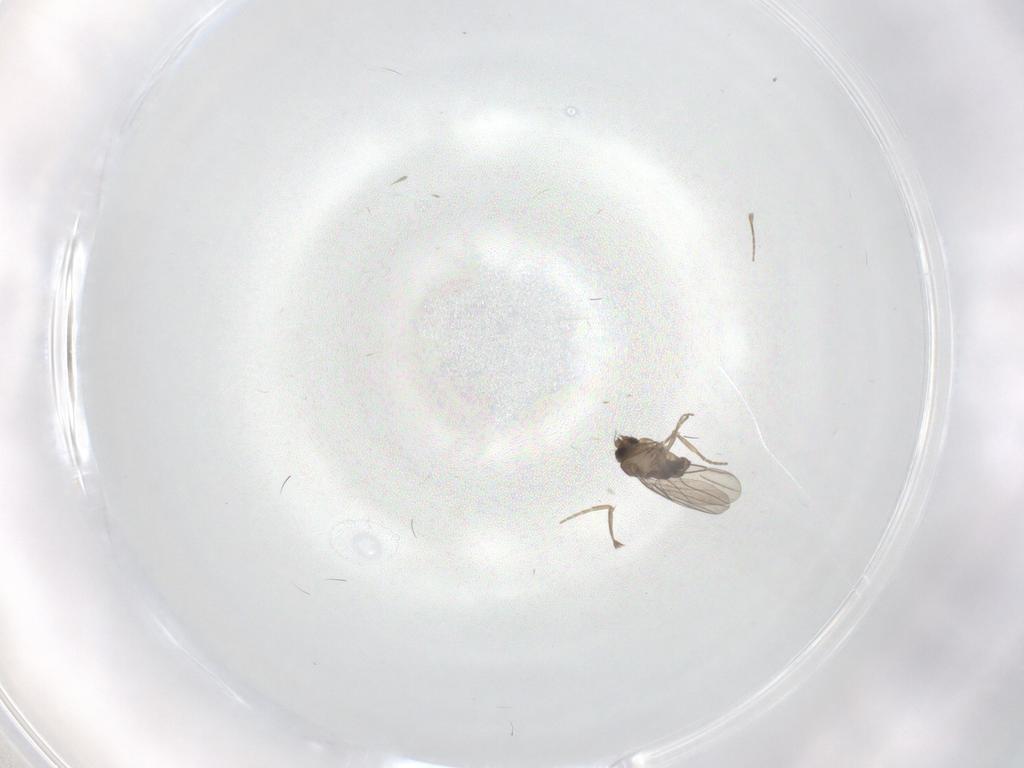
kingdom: Animalia
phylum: Arthropoda
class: Insecta
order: Diptera
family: Phoridae
